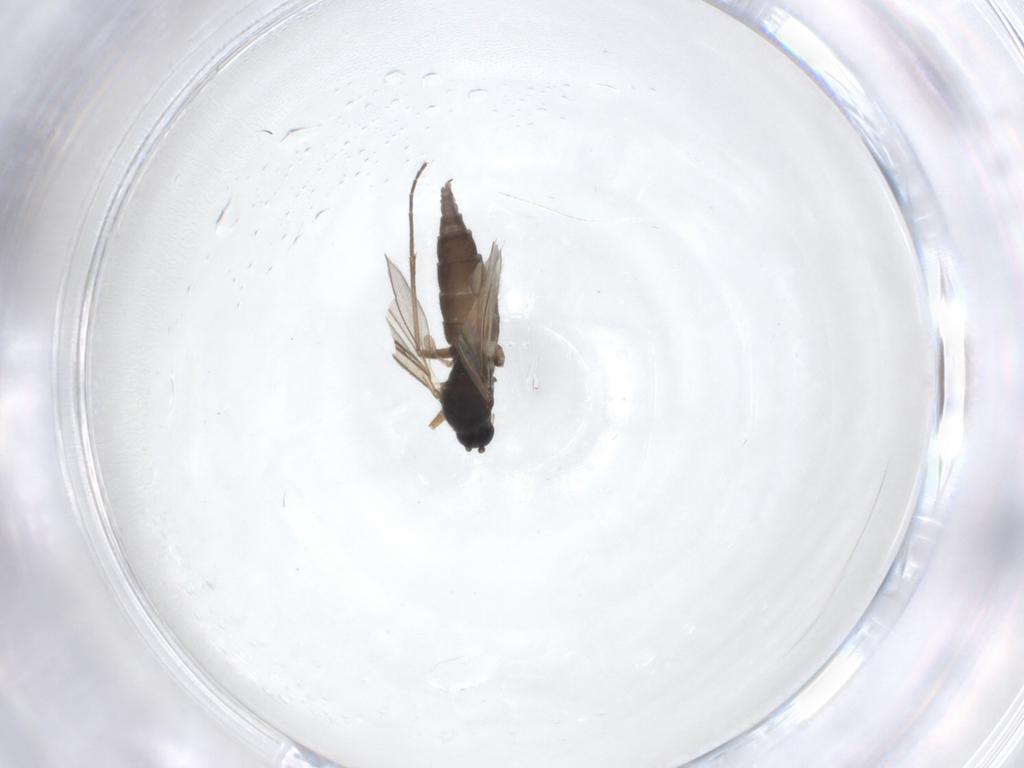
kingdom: Animalia
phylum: Arthropoda
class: Insecta
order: Diptera
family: Sciaridae
